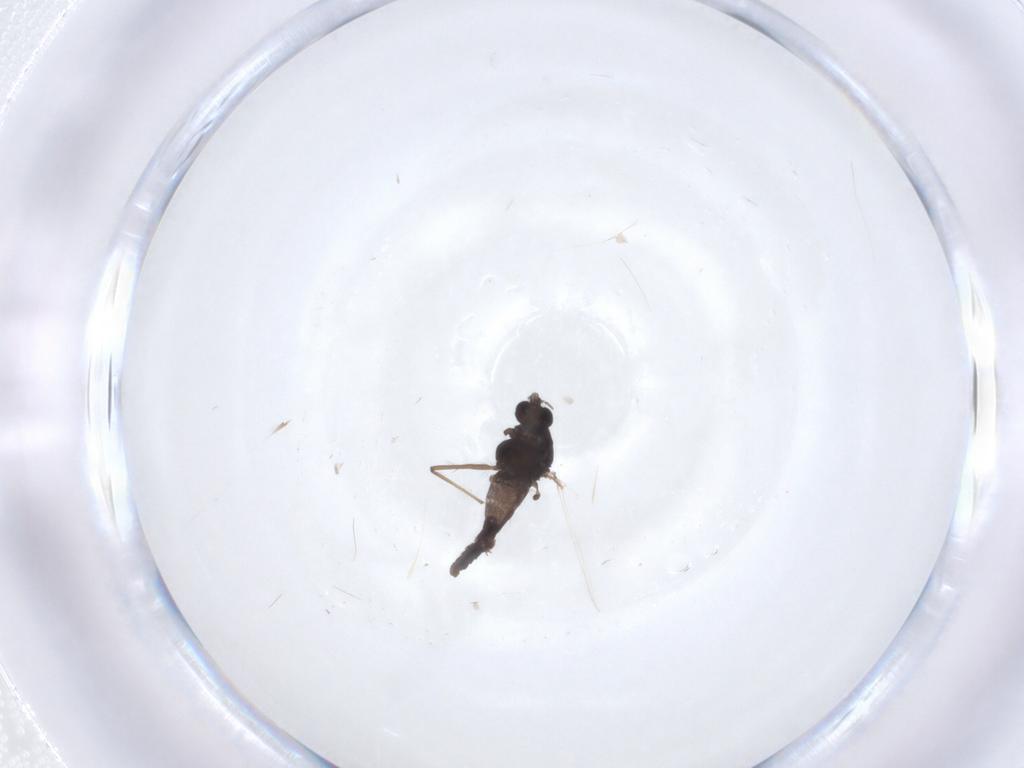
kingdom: Animalia
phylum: Arthropoda
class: Insecta
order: Diptera
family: Chironomidae
